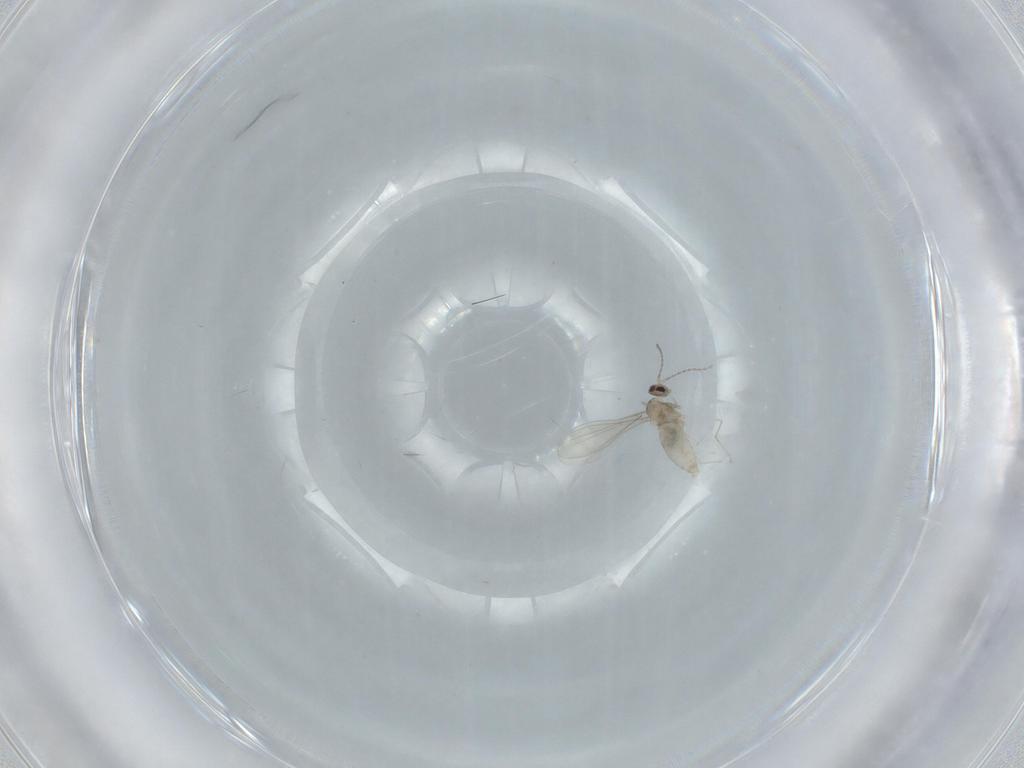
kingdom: Animalia
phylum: Arthropoda
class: Insecta
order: Diptera
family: Cecidomyiidae
